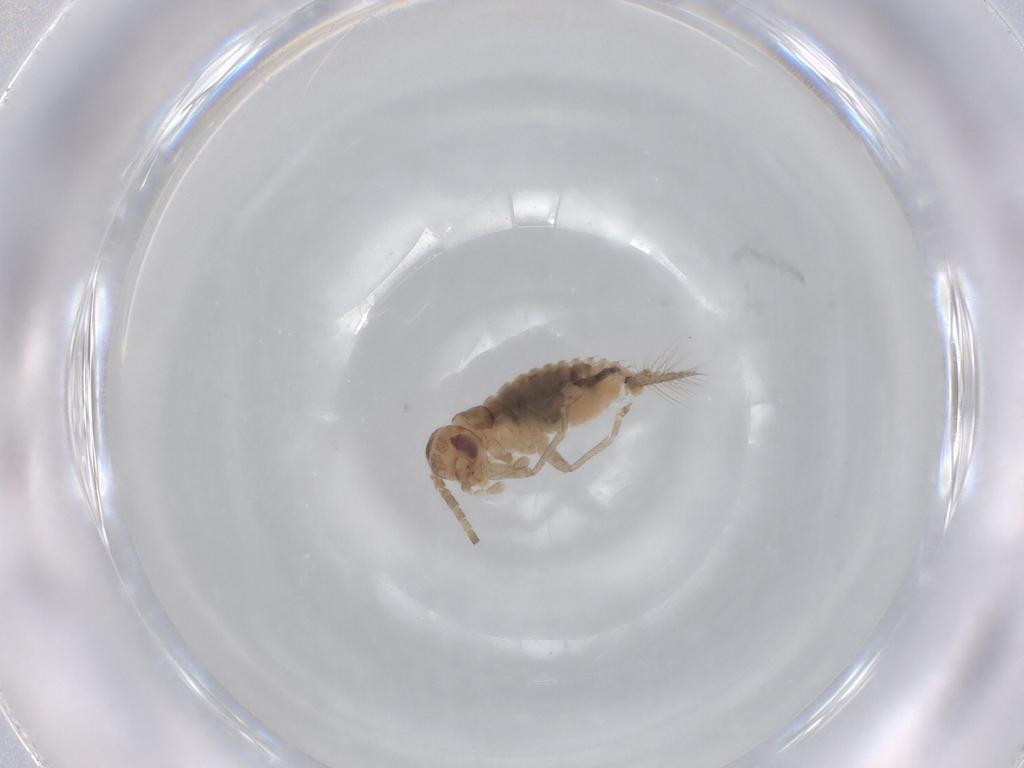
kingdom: Animalia
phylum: Arthropoda
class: Insecta
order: Orthoptera
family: Trigonidiidae
